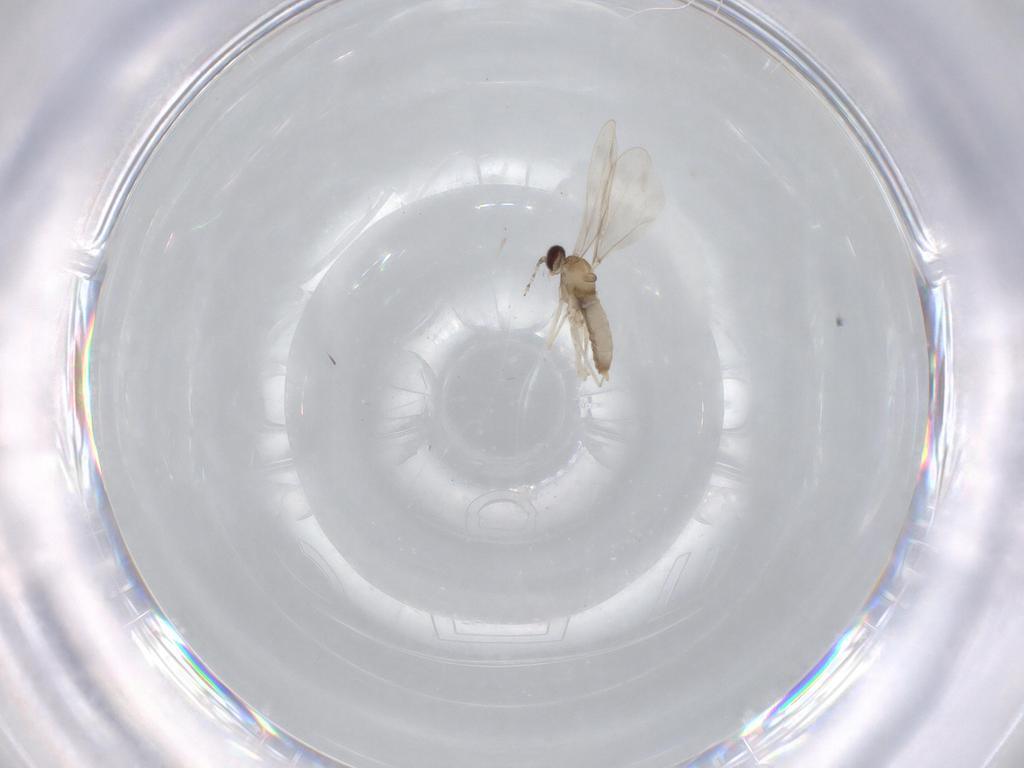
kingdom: Animalia
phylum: Arthropoda
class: Insecta
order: Diptera
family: Cecidomyiidae
